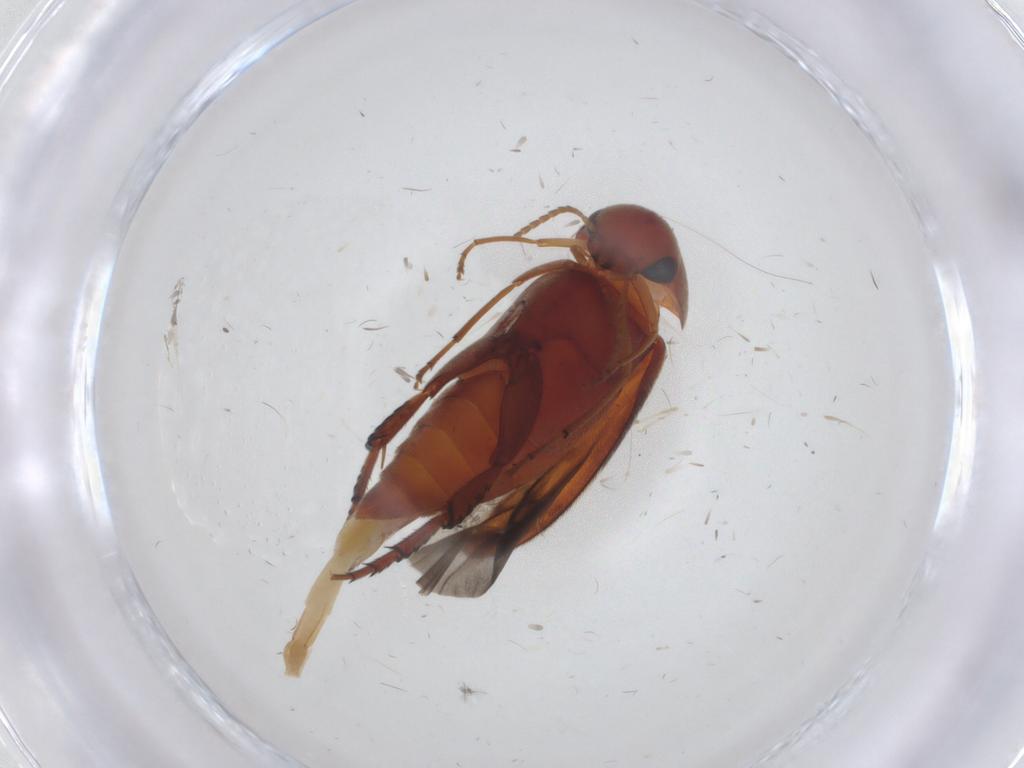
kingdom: Animalia
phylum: Arthropoda
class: Insecta
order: Coleoptera
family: Mordellidae
